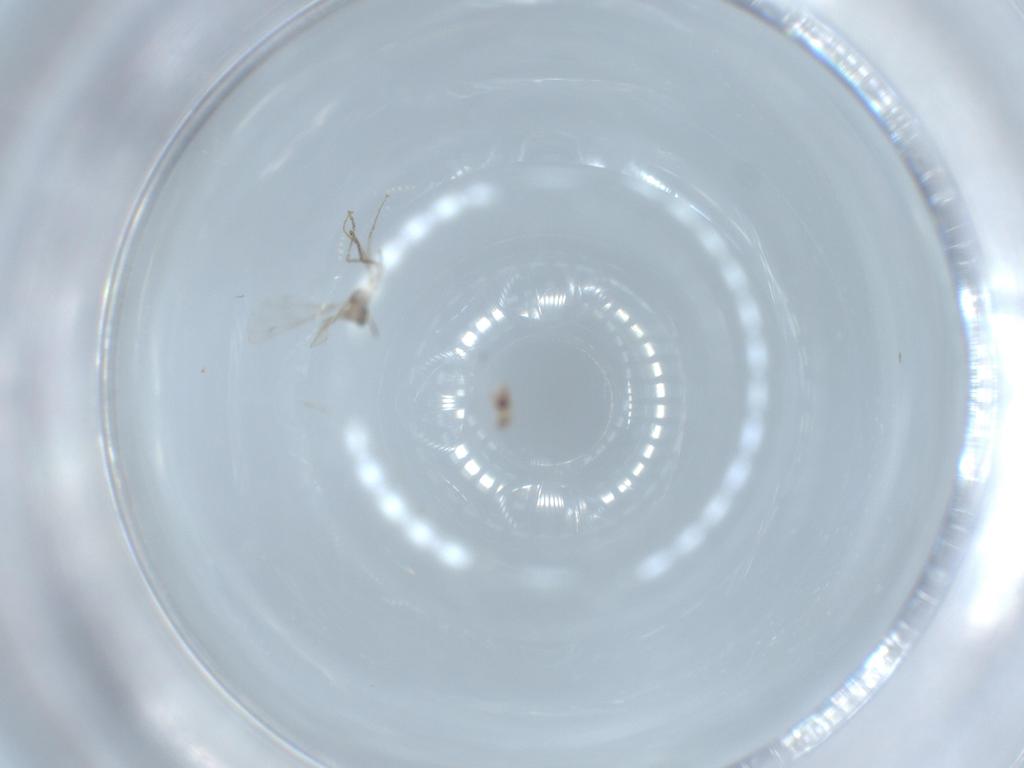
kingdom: Animalia
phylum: Arthropoda
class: Insecta
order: Diptera
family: Cecidomyiidae
